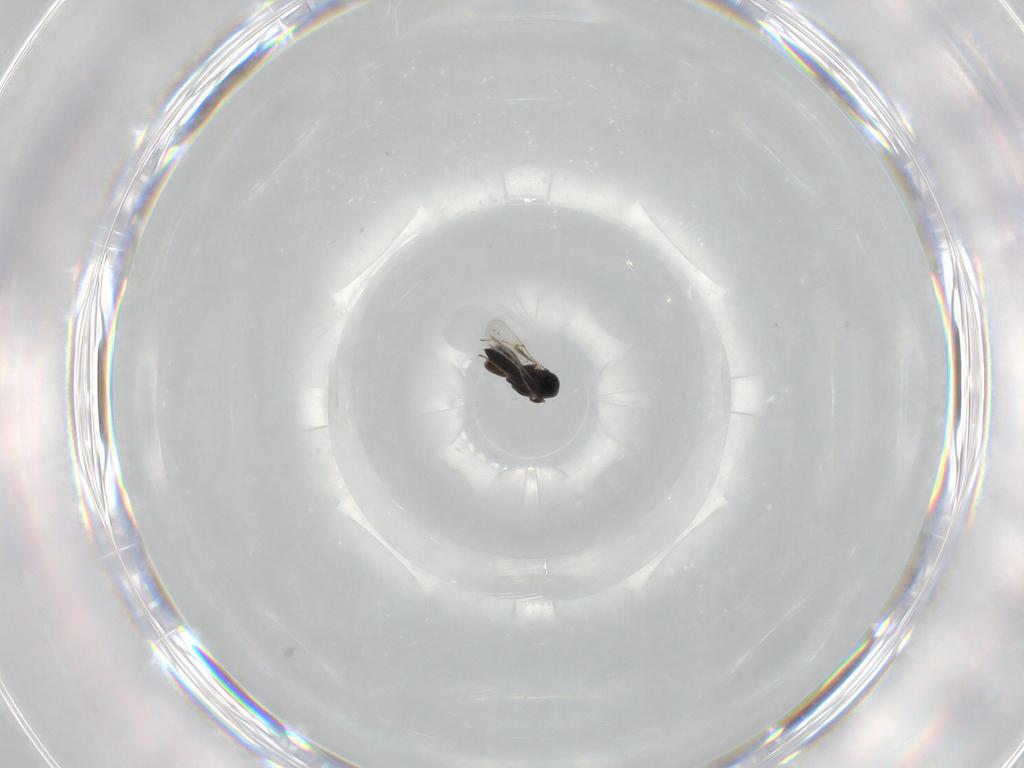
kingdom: Animalia
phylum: Arthropoda
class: Insecta
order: Hymenoptera
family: Scelionidae
